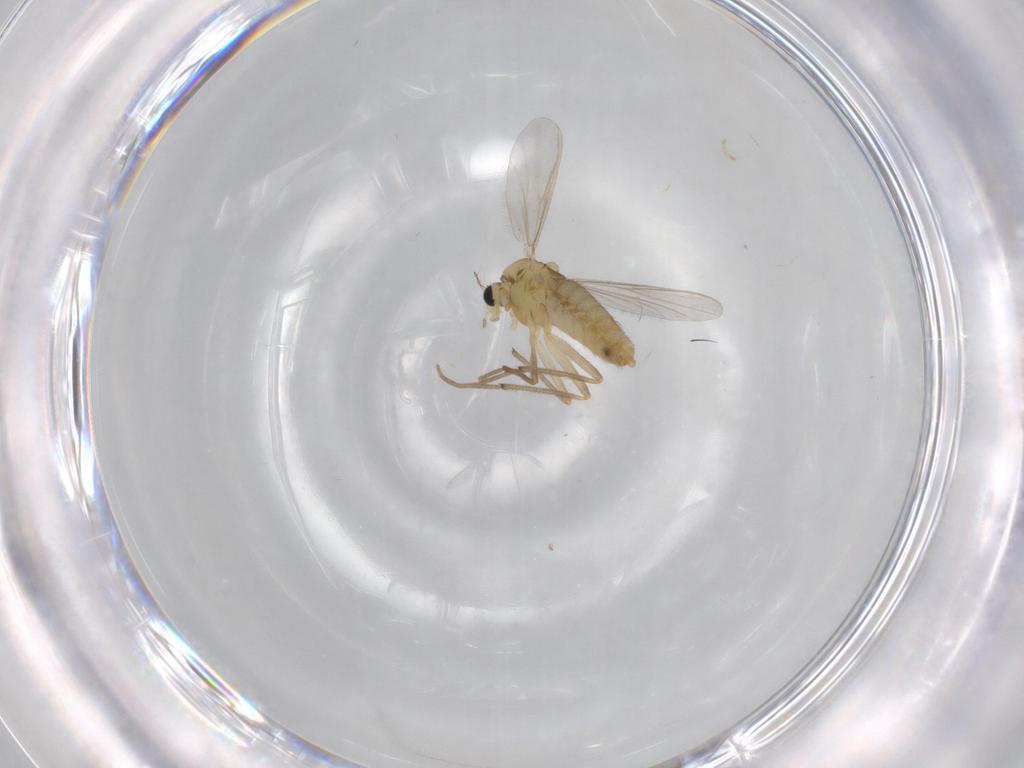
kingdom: Animalia
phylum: Arthropoda
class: Insecta
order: Diptera
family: Chironomidae
